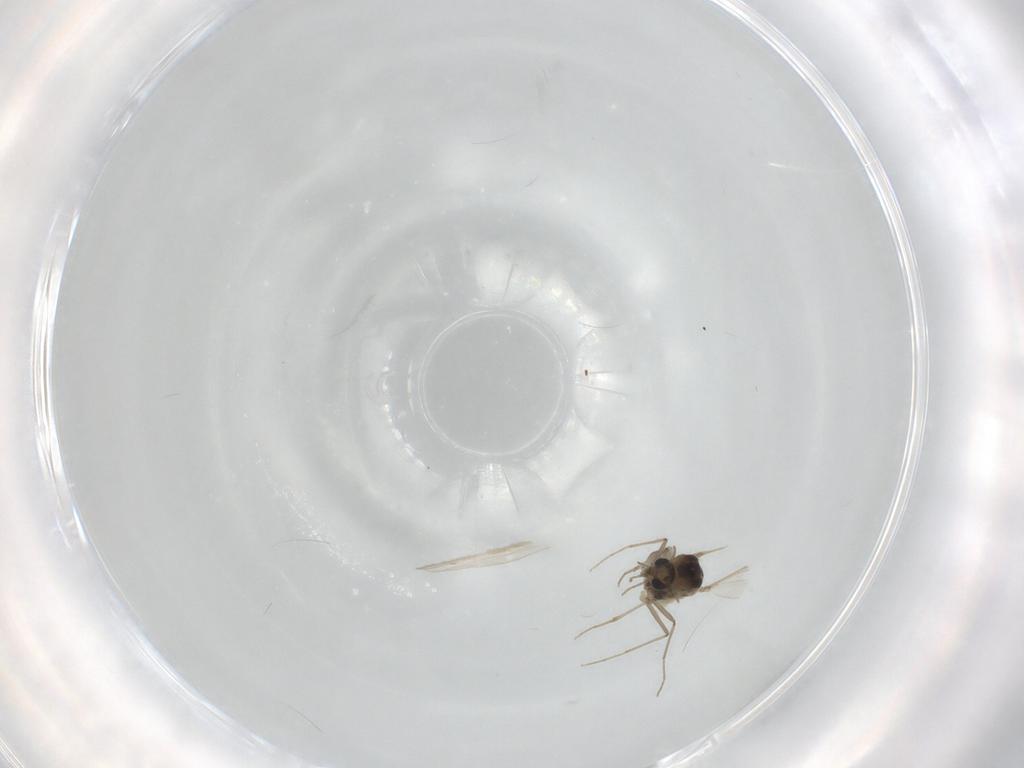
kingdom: Animalia
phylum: Arthropoda
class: Insecta
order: Diptera
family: Chironomidae
